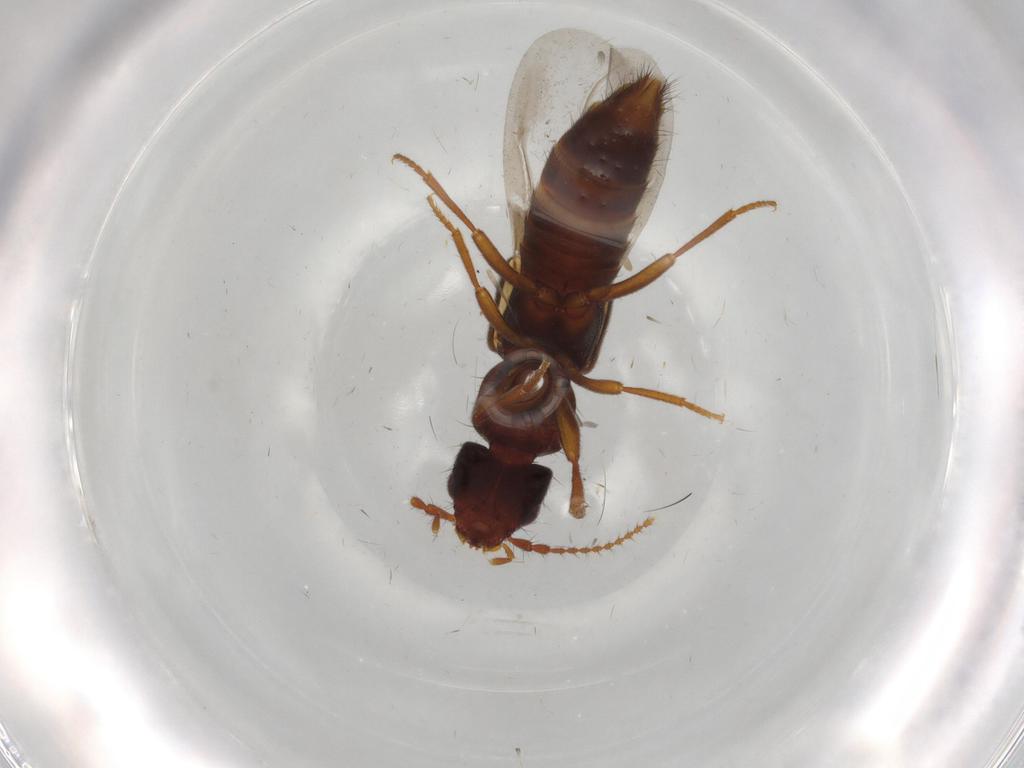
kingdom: Animalia
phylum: Arthropoda
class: Insecta
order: Coleoptera
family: Staphylinidae
